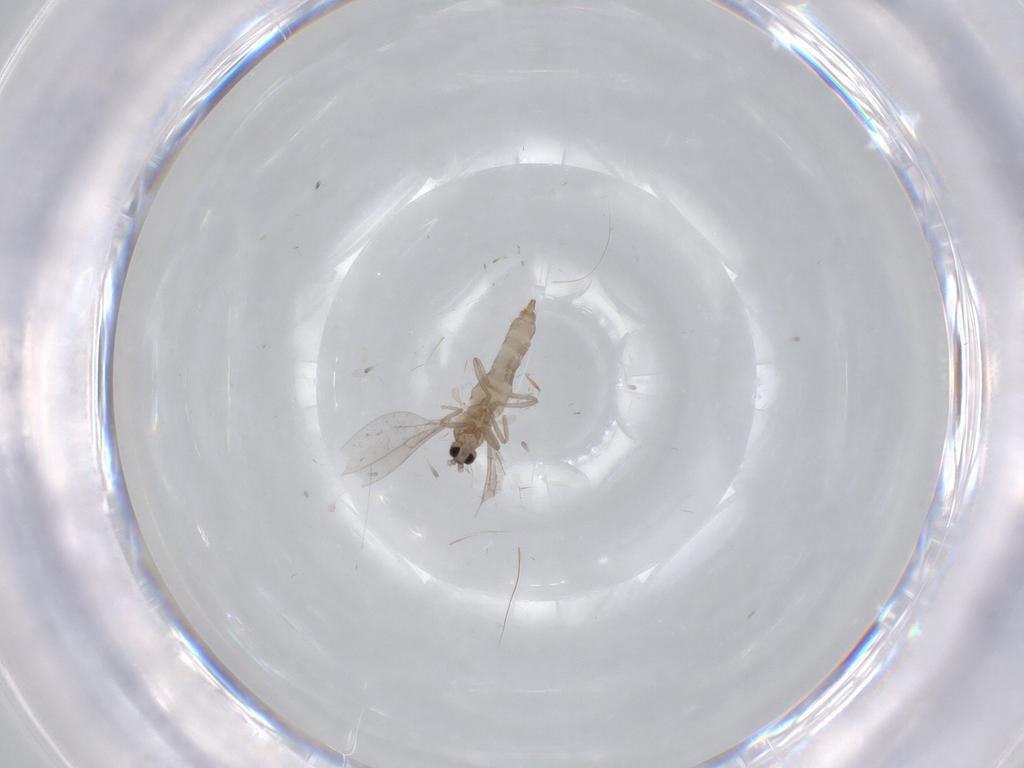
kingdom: Animalia
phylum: Arthropoda
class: Insecta
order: Diptera
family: Cecidomyiidae
